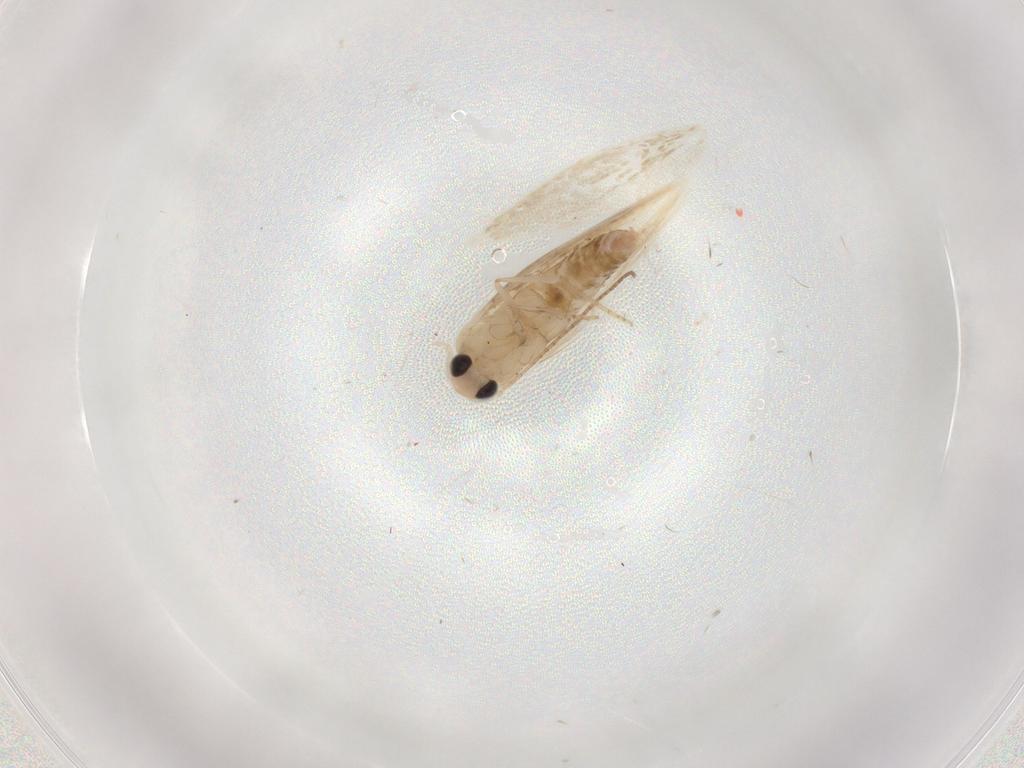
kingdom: Animalia
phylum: Arthropoda
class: Insecta
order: Lepidoptera
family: Bucculatricidae
